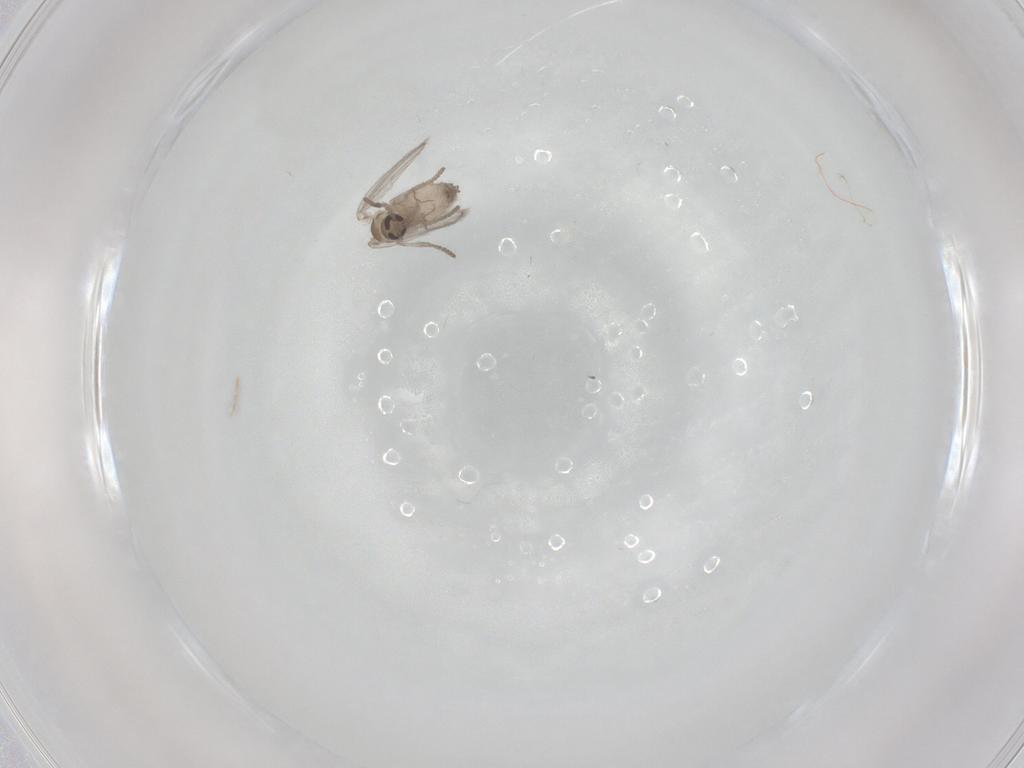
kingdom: Animalia
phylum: Arthropoda
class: Insecta
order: Diptera
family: Psychodidae
